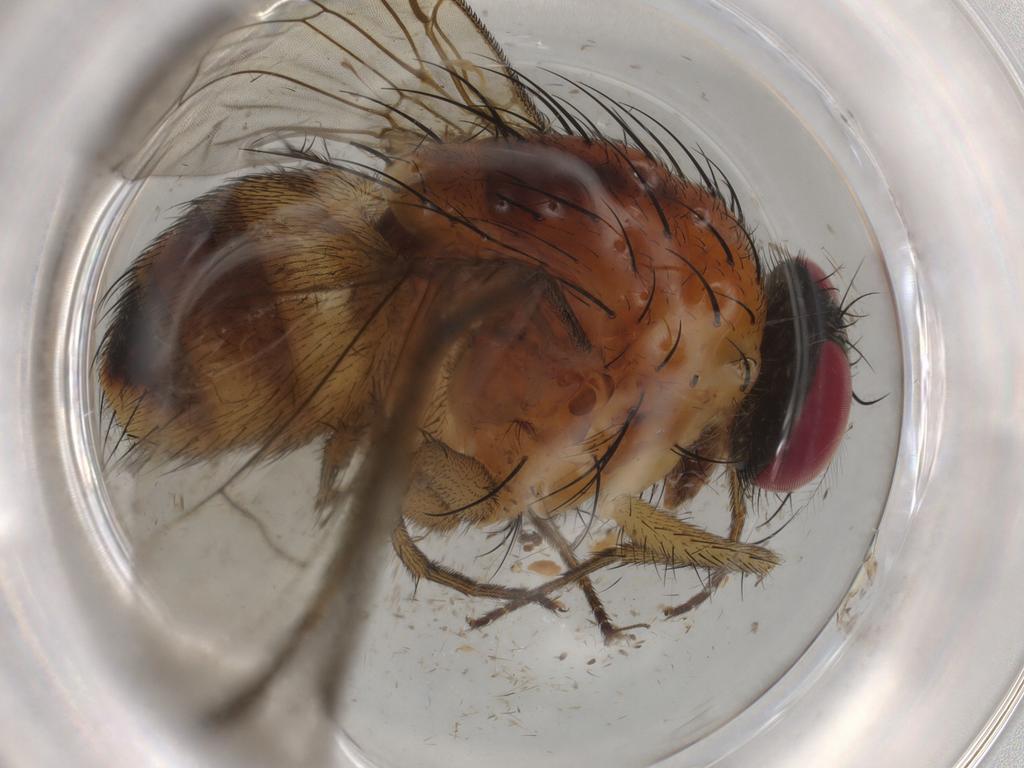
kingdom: Animalia
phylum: Arthropoda
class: Insecta
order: Diptera
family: Muscidae
